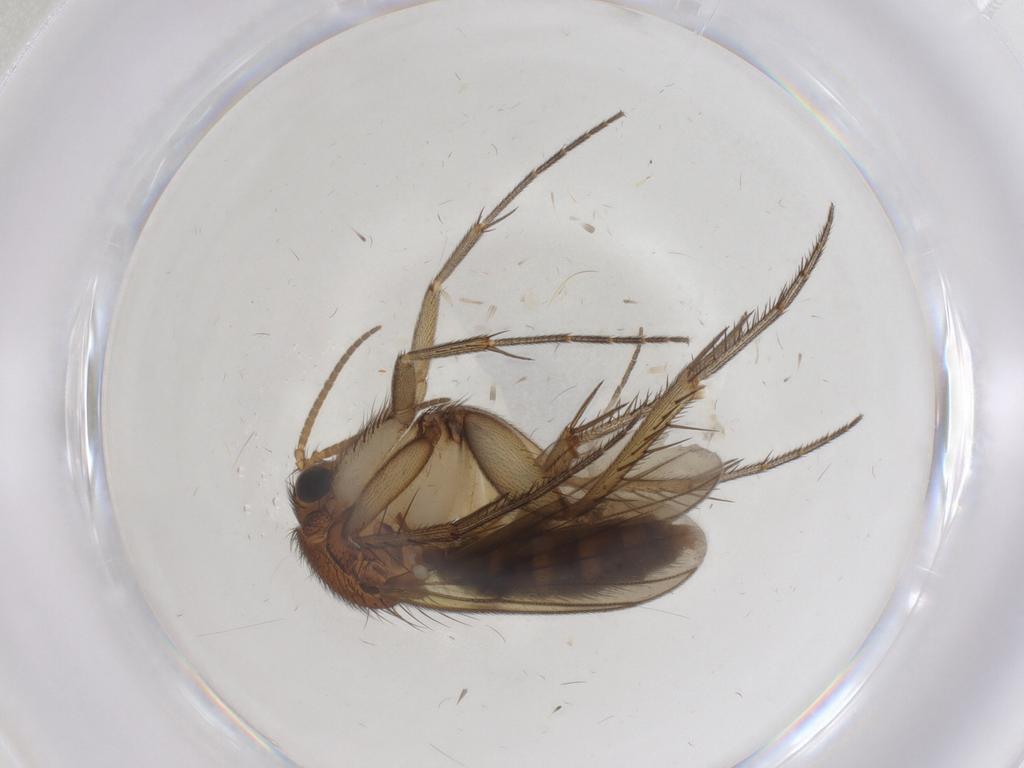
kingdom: Animalia
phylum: Arthropoda
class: Insecta
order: Diptera
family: Mycetophilidae
